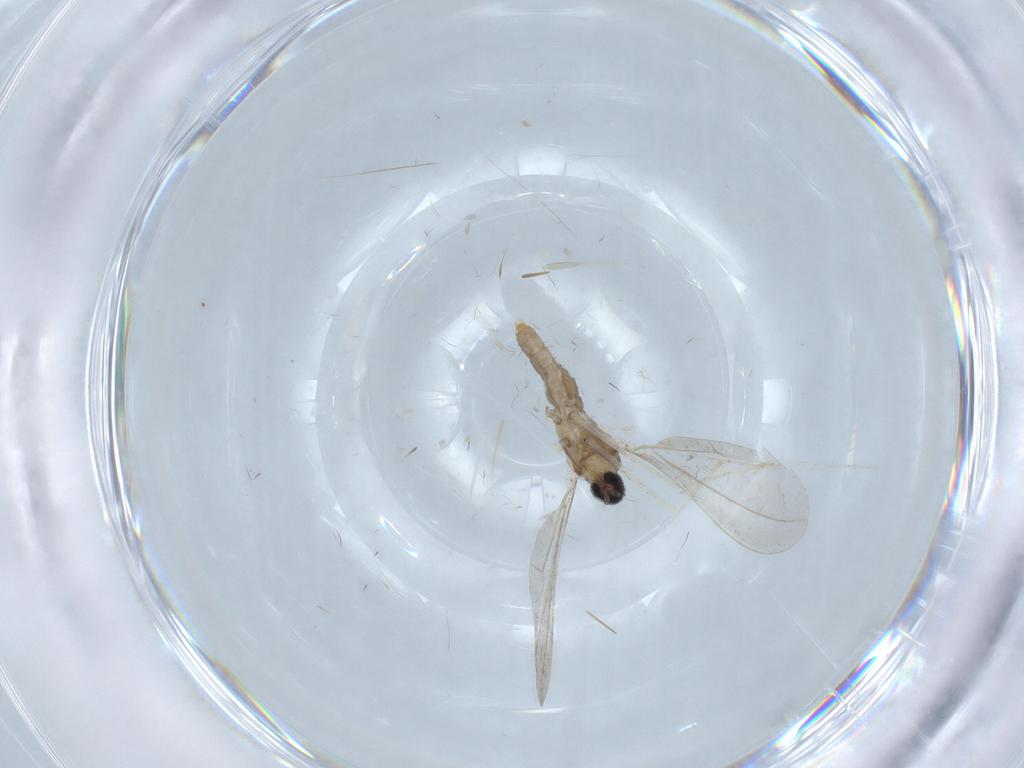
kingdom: Animalia
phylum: Arthropoda
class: Insecta
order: Diptera
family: Cecidomyiidae
